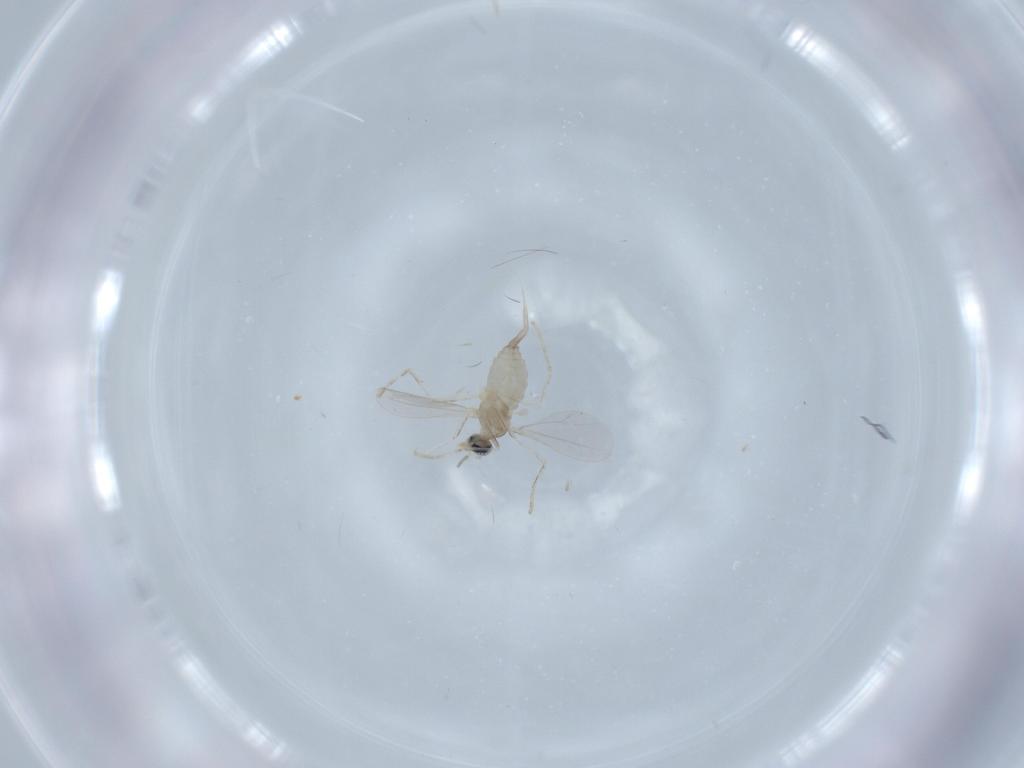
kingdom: Animalia
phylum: Arthropoda
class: Insecta
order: Diptera
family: Cecidomyiidae
